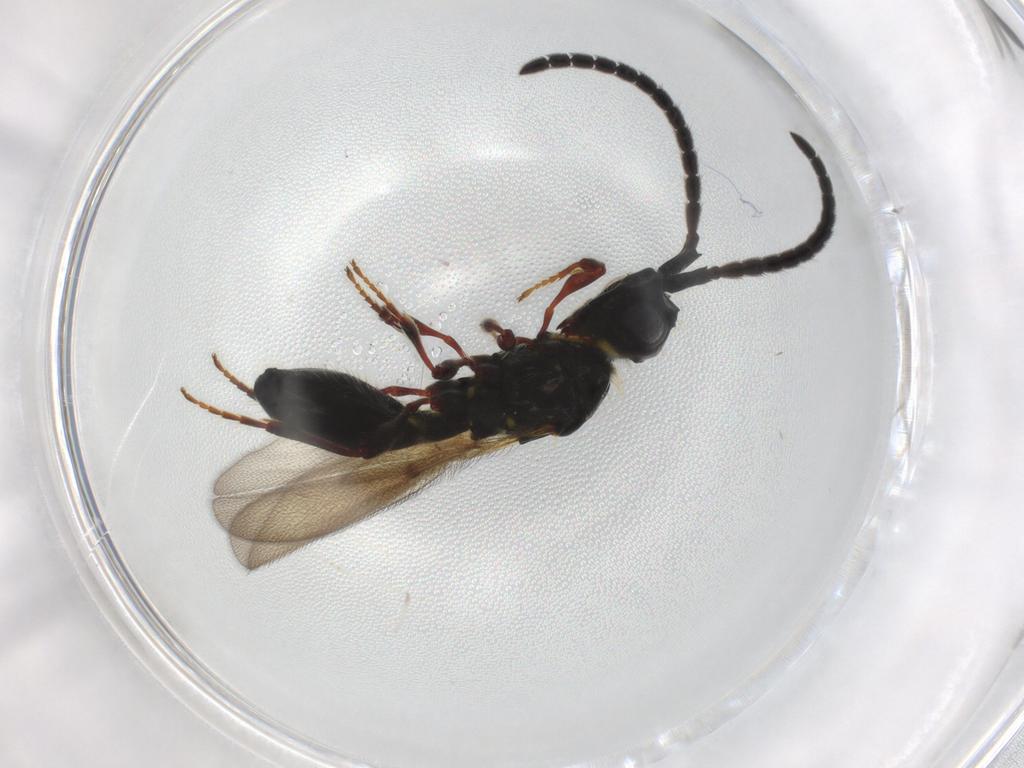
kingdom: Animalia
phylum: Arthropoda
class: Insecta
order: Hymenoptera
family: Diapriidae
